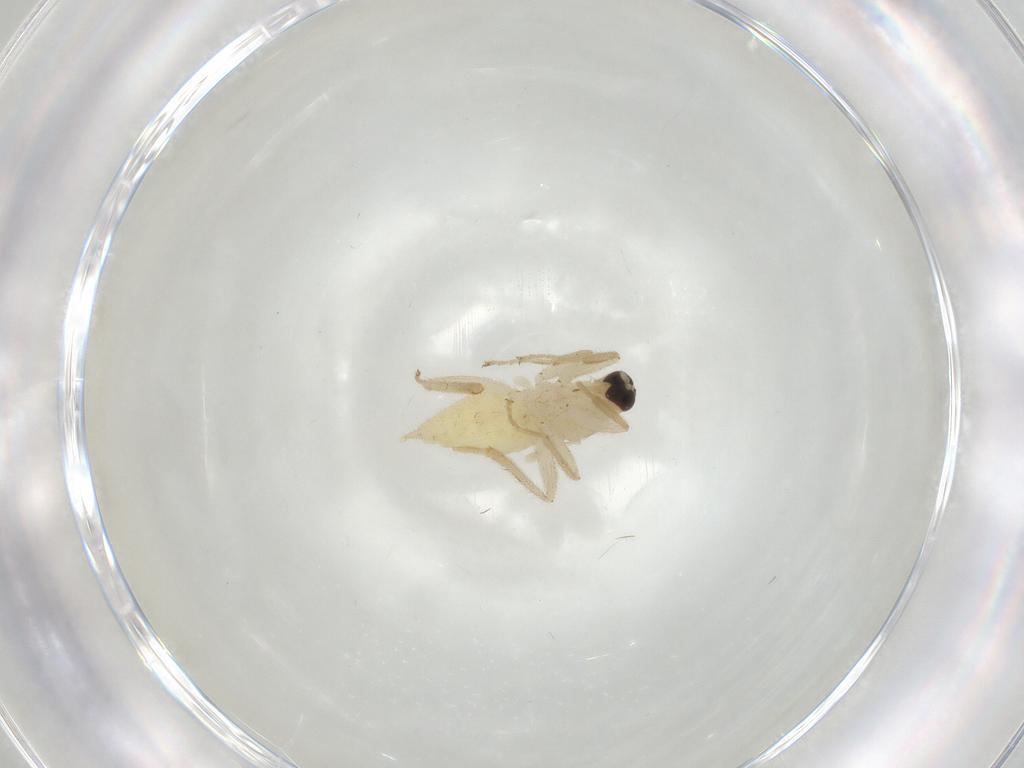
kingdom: Animalia
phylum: Arthropoda
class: Insecta
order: Diptera
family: Hybotidae
